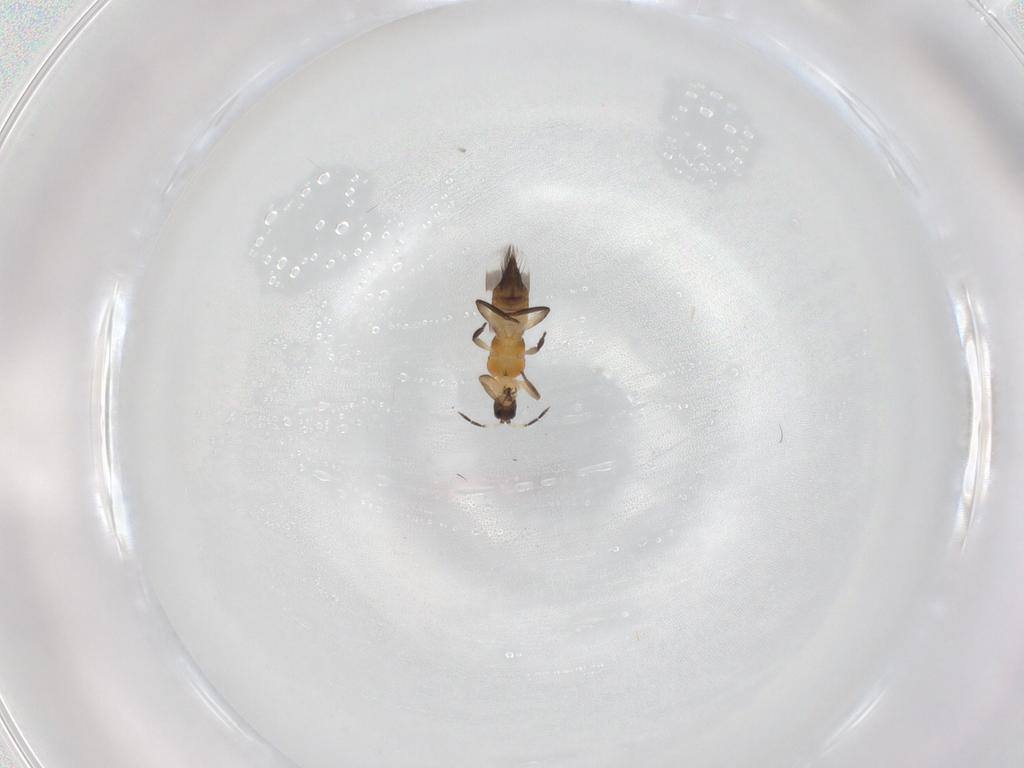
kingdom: Animalia
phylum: Arthropoda
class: Insecta
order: Thysanoptera
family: Aeolothripidae
